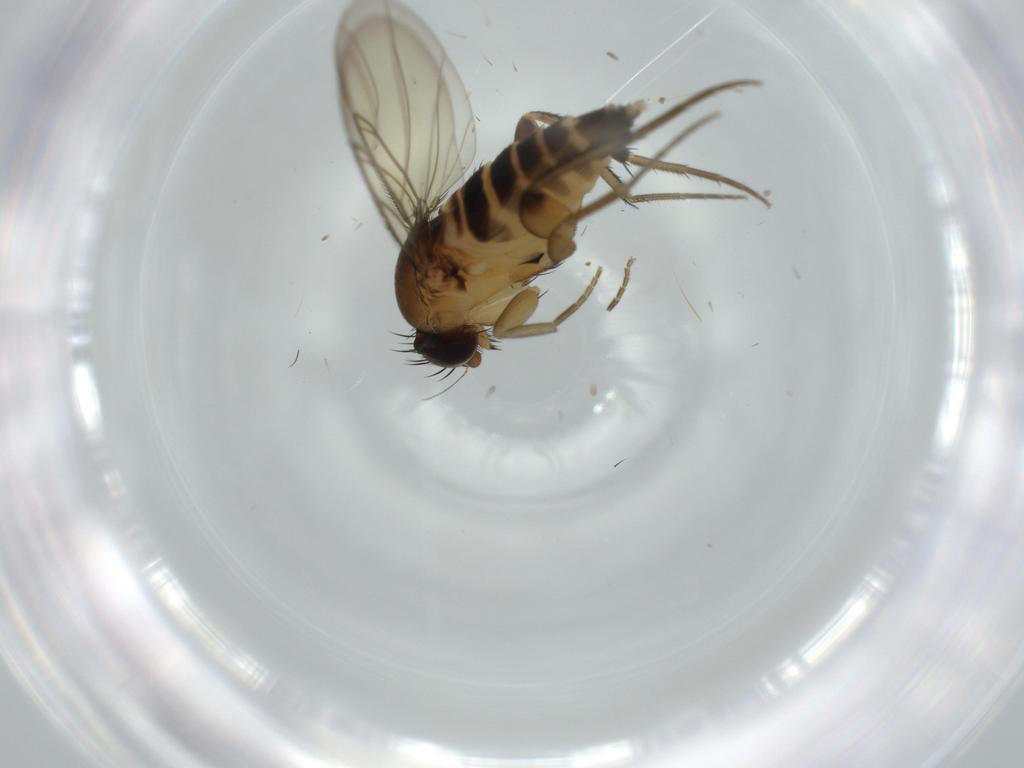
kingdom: Animalia
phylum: Arthropoda
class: Insecta
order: Diptera
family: Phoridae
